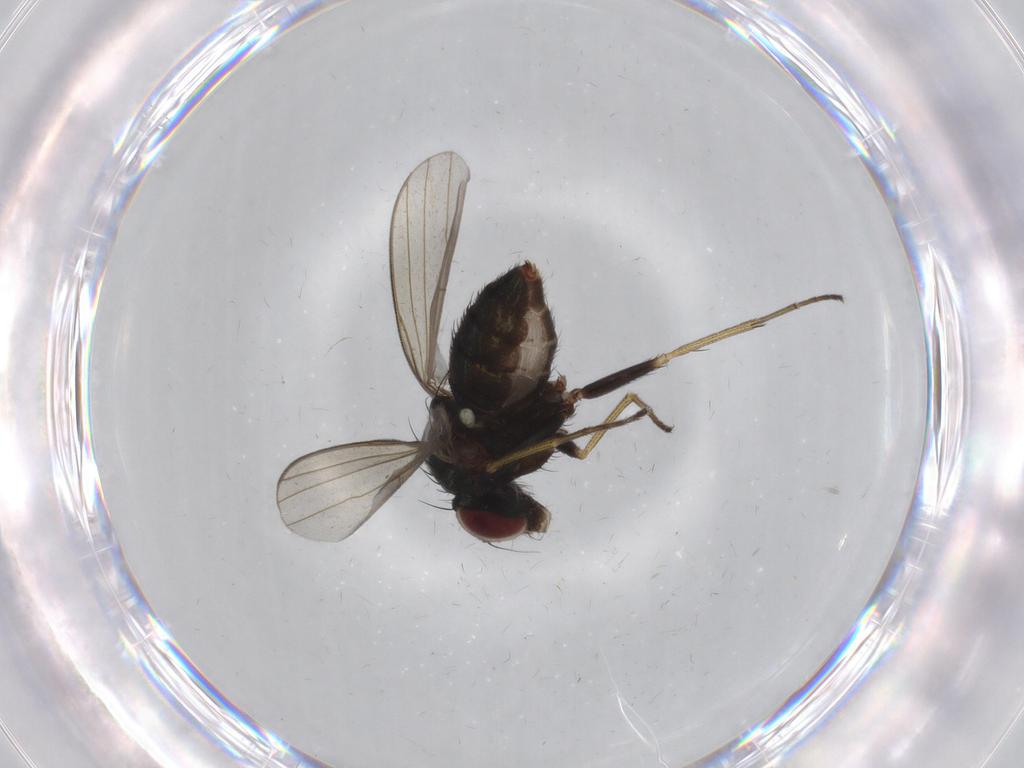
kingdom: Animalia
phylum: Arthropoda
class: Insecta
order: Diptera
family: Dolichopodidae
